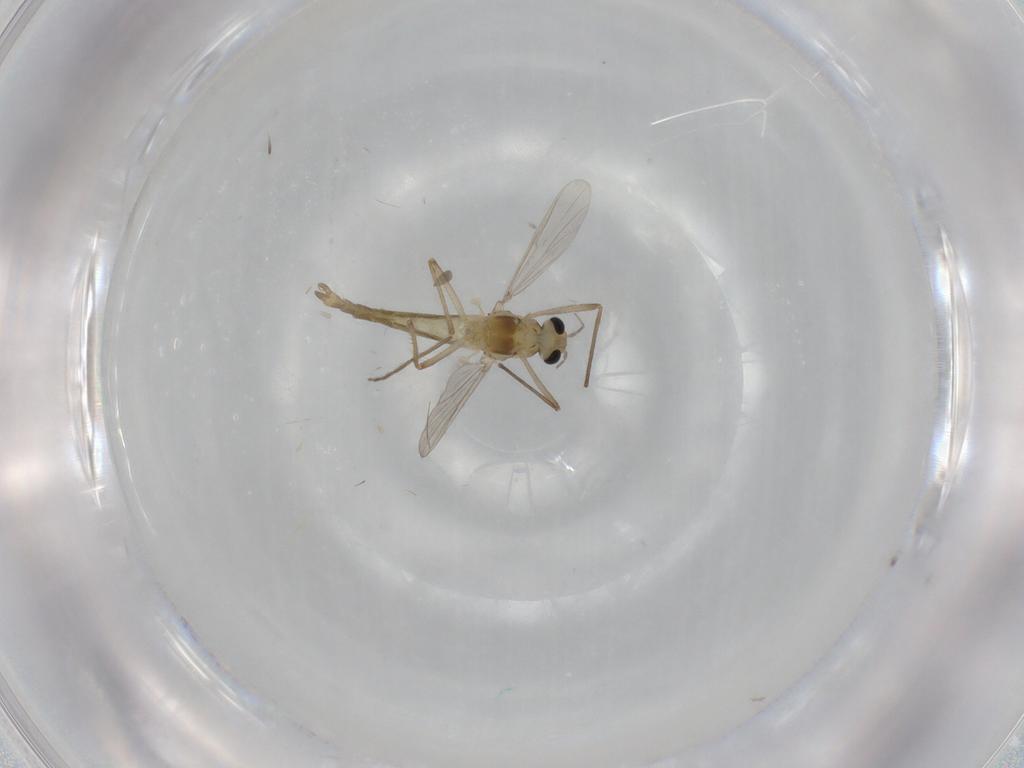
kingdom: Animalia
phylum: Arthropoda
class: Insecta
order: Diptera
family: Chironomidae
